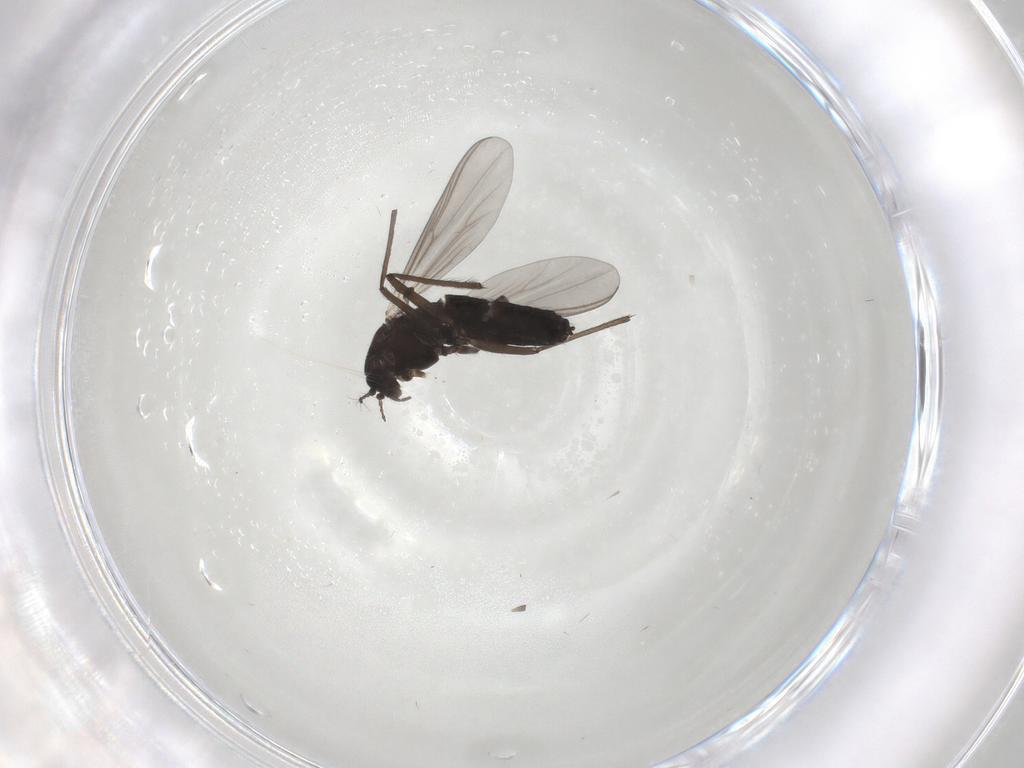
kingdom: Animalia
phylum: Arthropoda
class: Insecta
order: Diptera
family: Chironomidae
